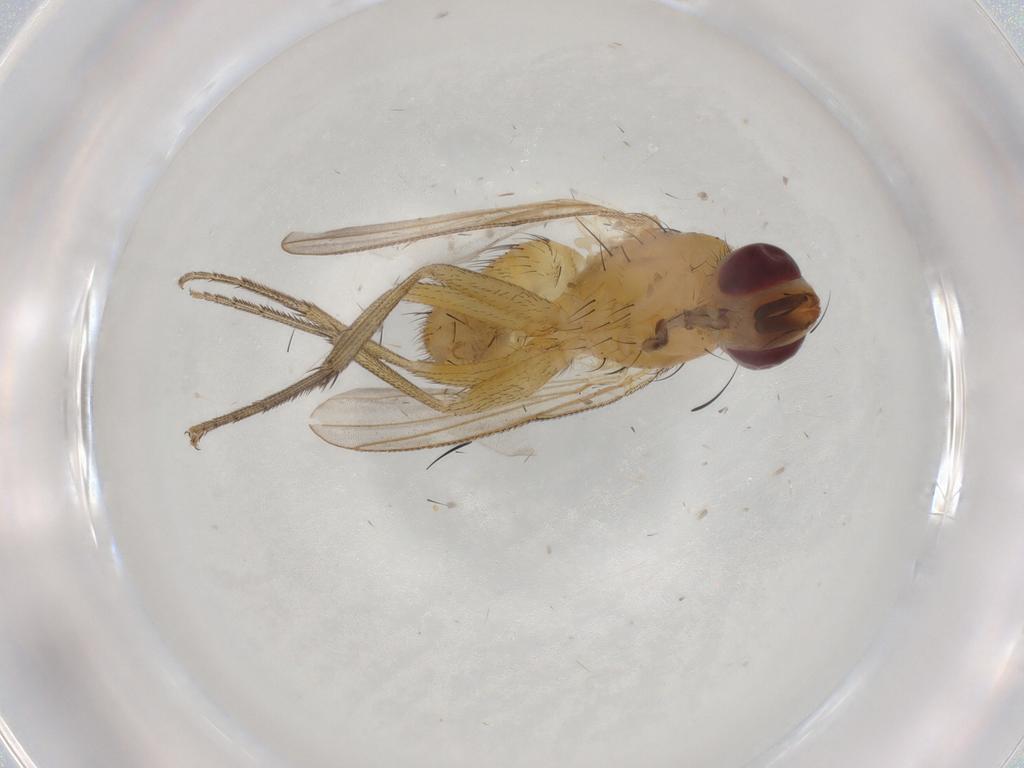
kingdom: Animalia
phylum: Arthropoda
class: Insecta
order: Diptera
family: Muscidae
